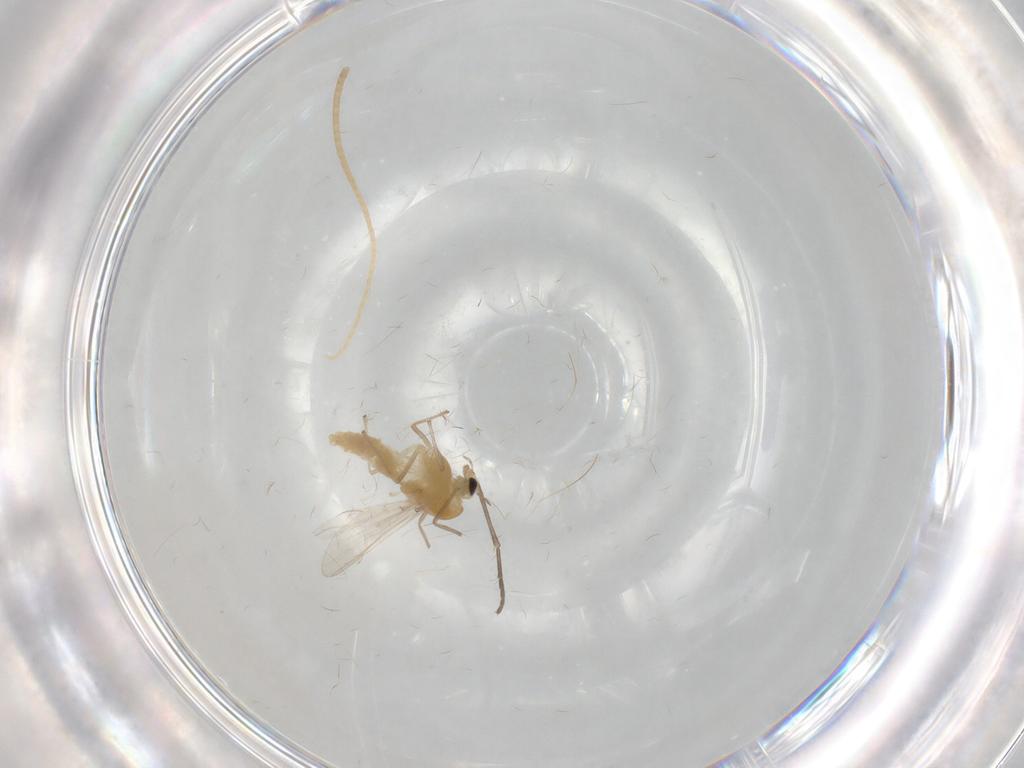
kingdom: Animalia
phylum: Arthropoda
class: Insecta
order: Diptera
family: Chironomidae
